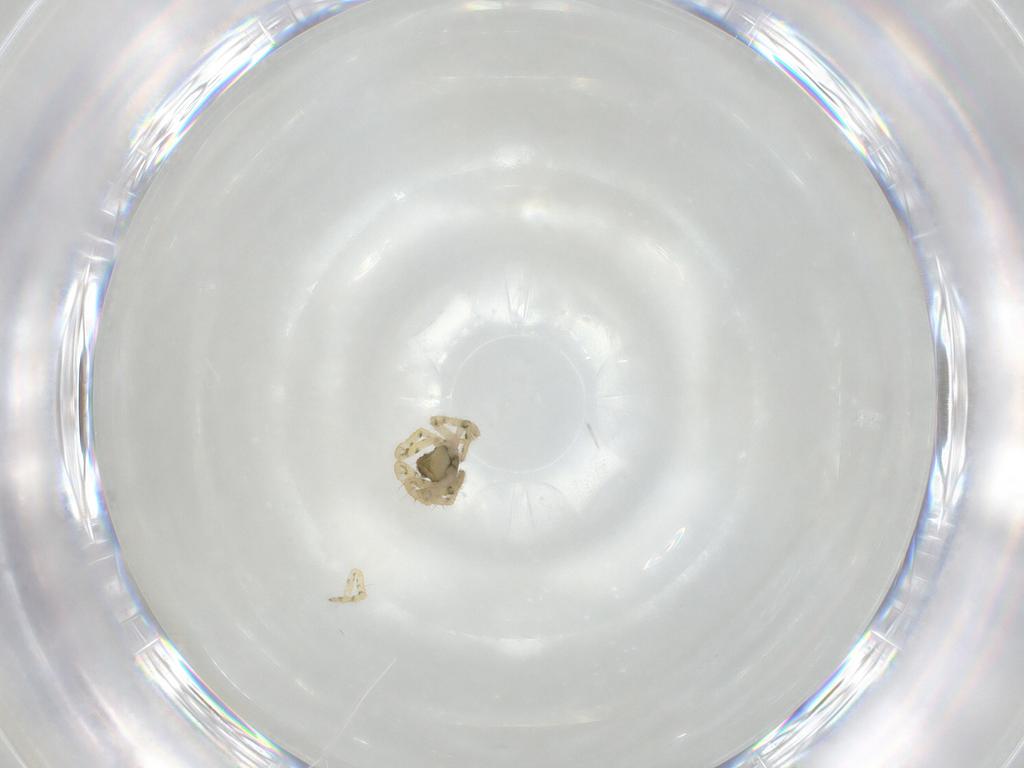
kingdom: Animalia
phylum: Arthropoda
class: Arachnida
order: Araneae
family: Theridiidae
